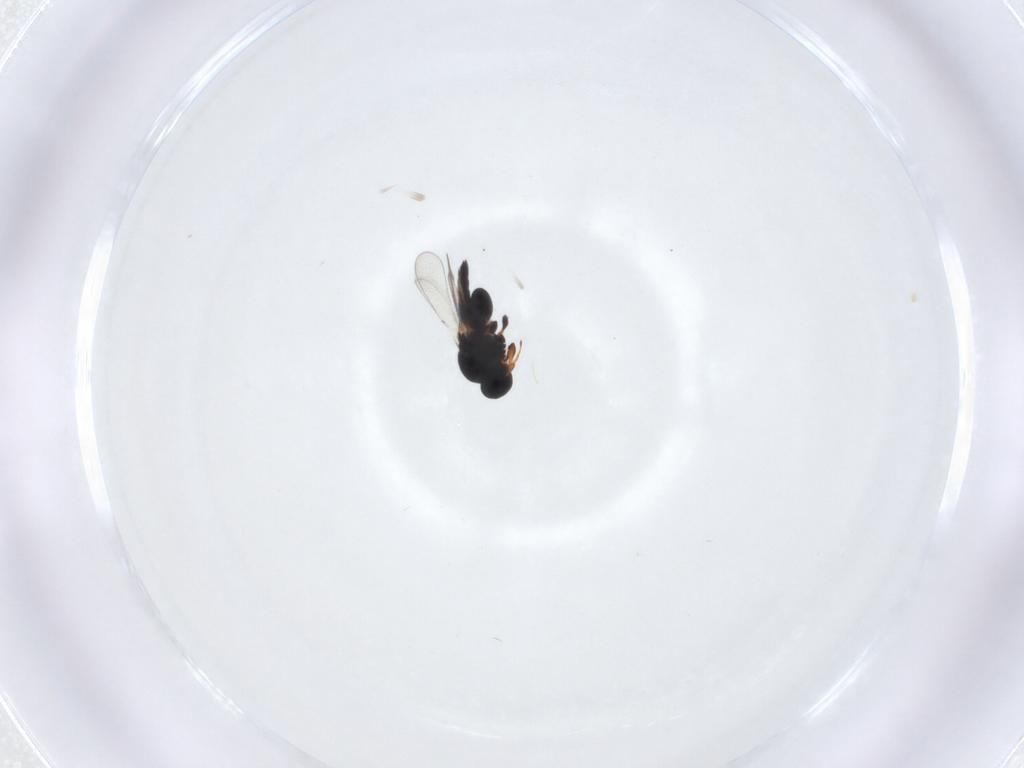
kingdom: Animalia
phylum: Arthropoda
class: Insecta
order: Hymenoptera
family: Platygastridae
